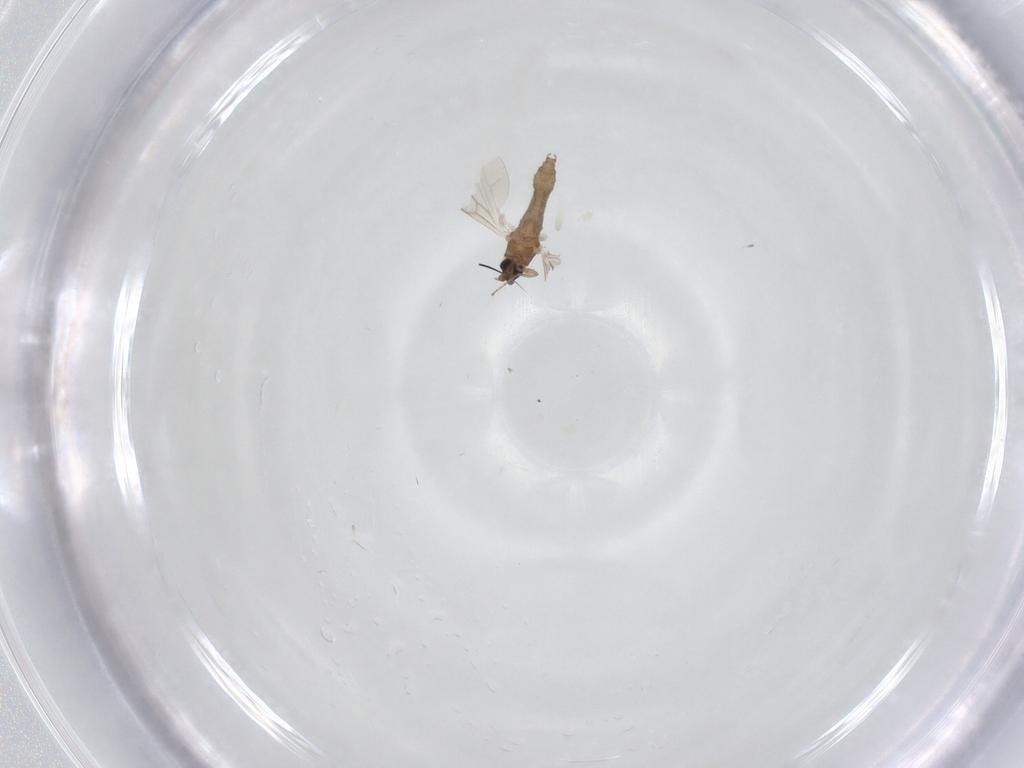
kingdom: Animalia
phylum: Arthropoda
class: Insecta
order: Diptera
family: Cecidomyiidae
